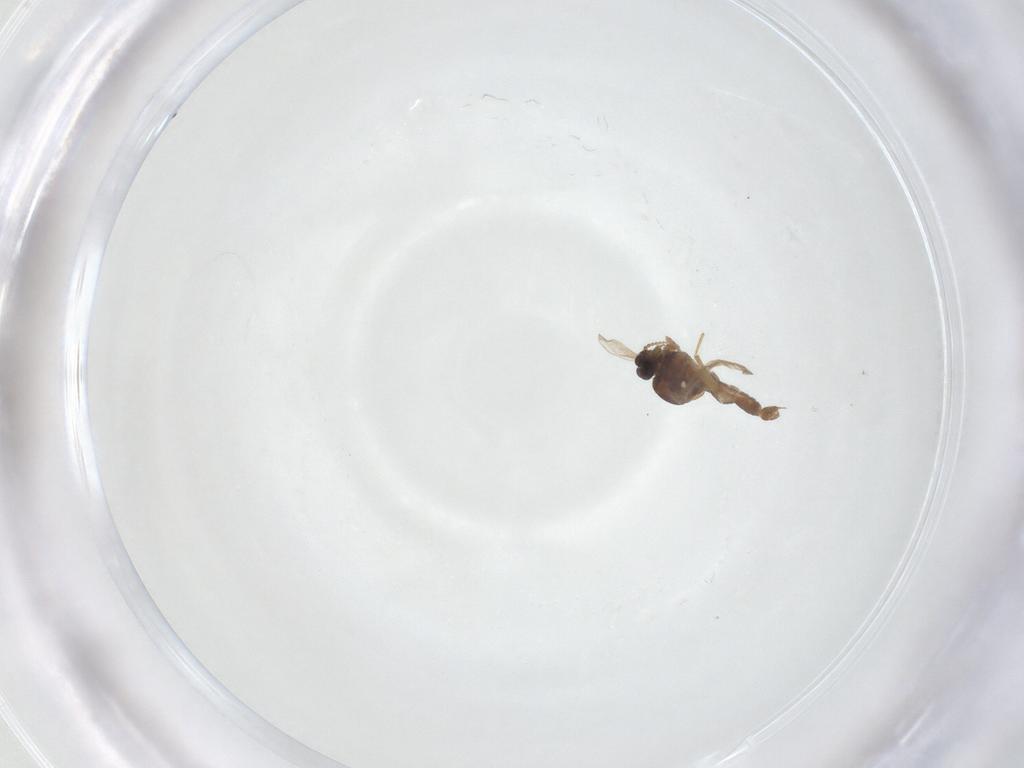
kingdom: Animalia
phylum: Arthropoda
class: Insecta
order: Diptera
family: Ceratopogonidae
